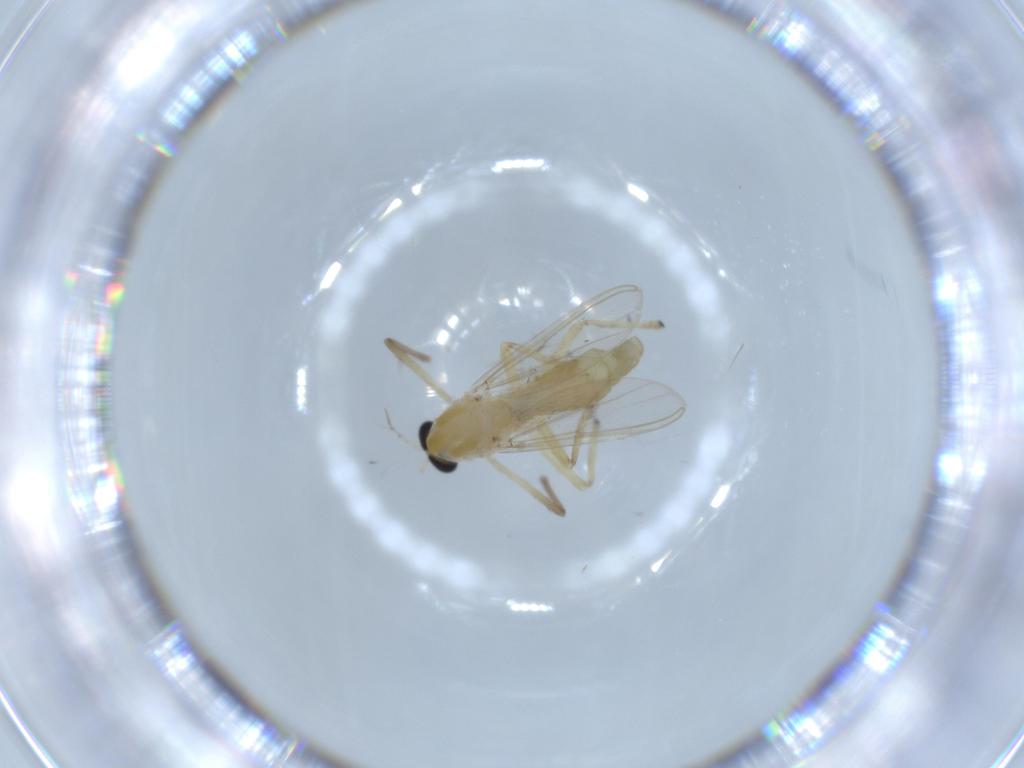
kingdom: Animalia
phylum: Arthropoda
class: Insecta
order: Diptera
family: Chironomidae
